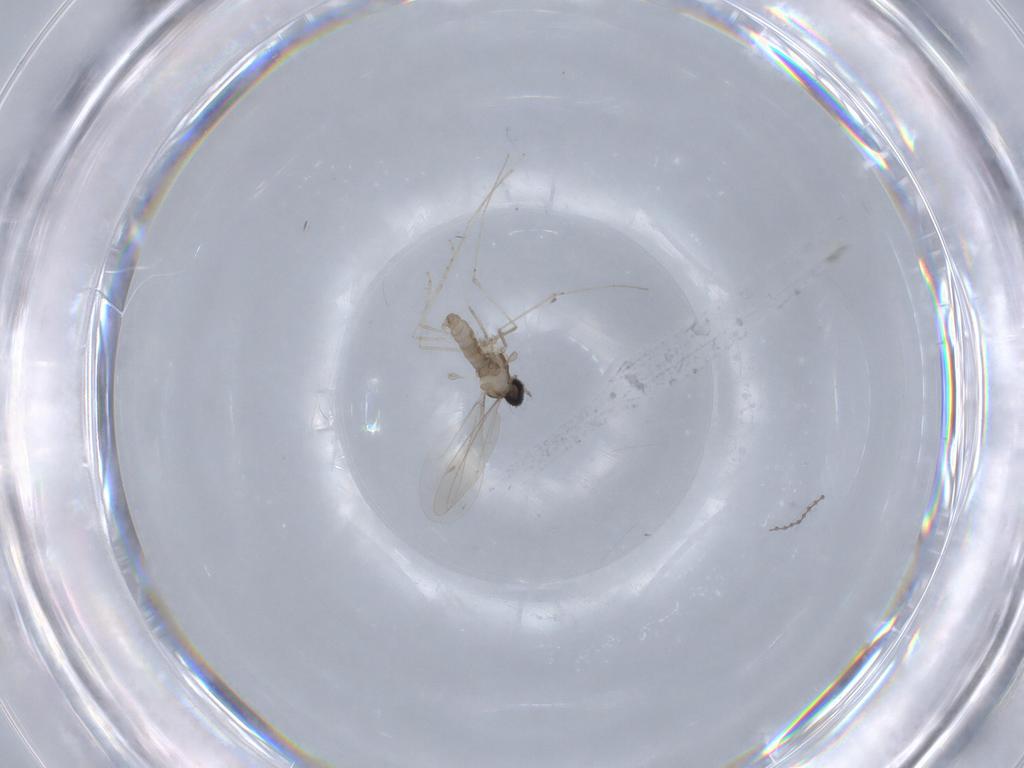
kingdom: Animalia
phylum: Arthropoda
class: Insecta
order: Diptera
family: Cecidomyiidae
